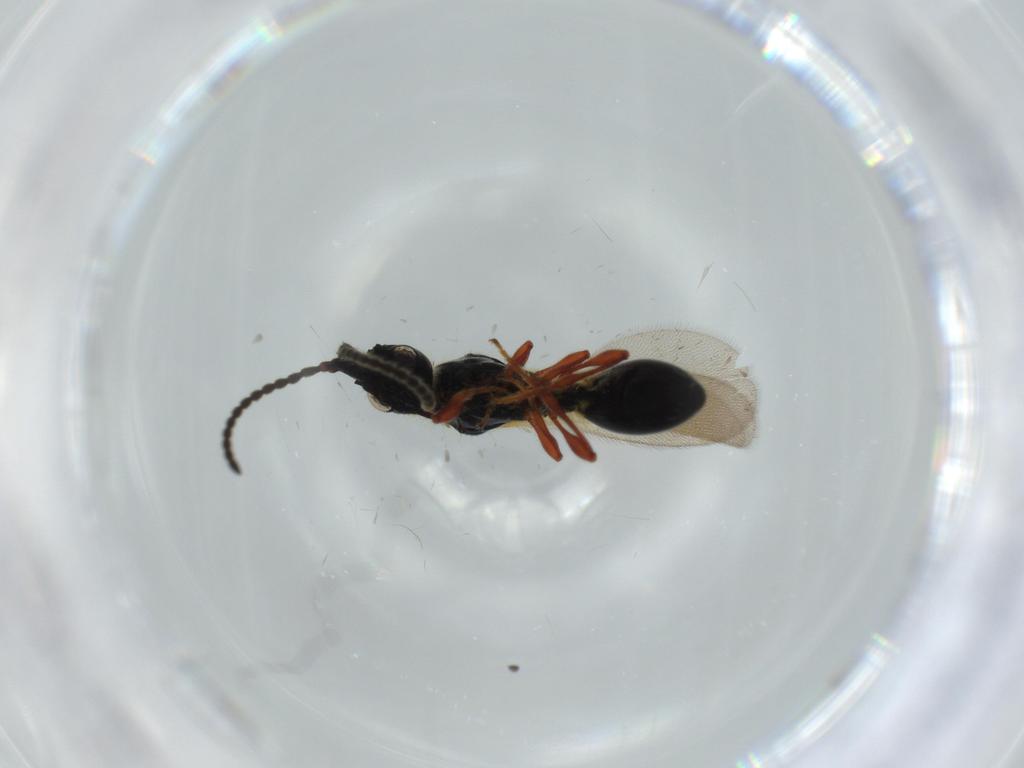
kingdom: Animalia
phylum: Arthropoda
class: Insecta
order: Hymenoptera
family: Diapriidae
